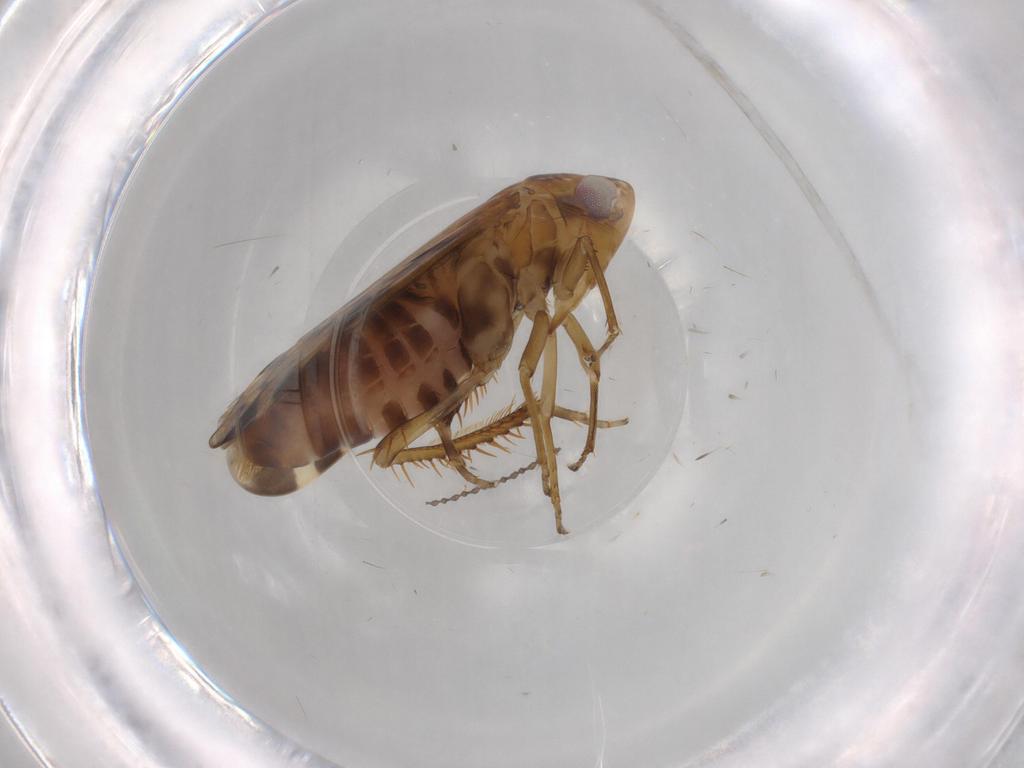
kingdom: Animalia
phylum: Arthropoda
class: Insecta
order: Hemiptera
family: Cicadellidae
